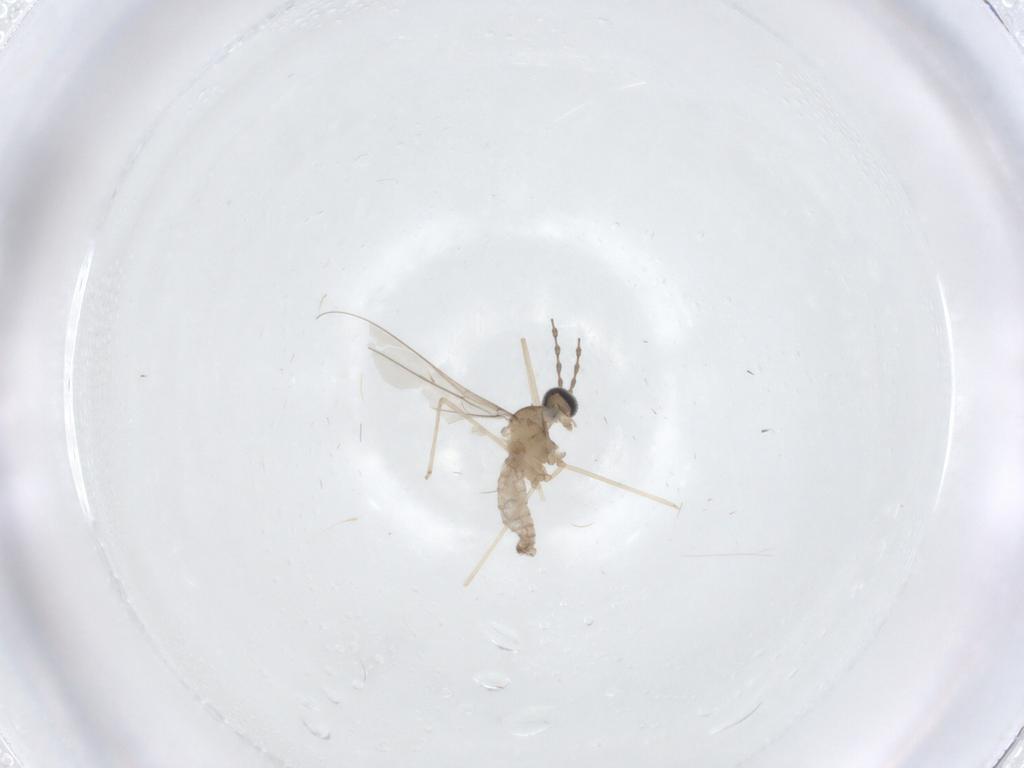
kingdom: Animalia
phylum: Arthropoda
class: Insecta
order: Diptera
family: Cecidomyiidae
